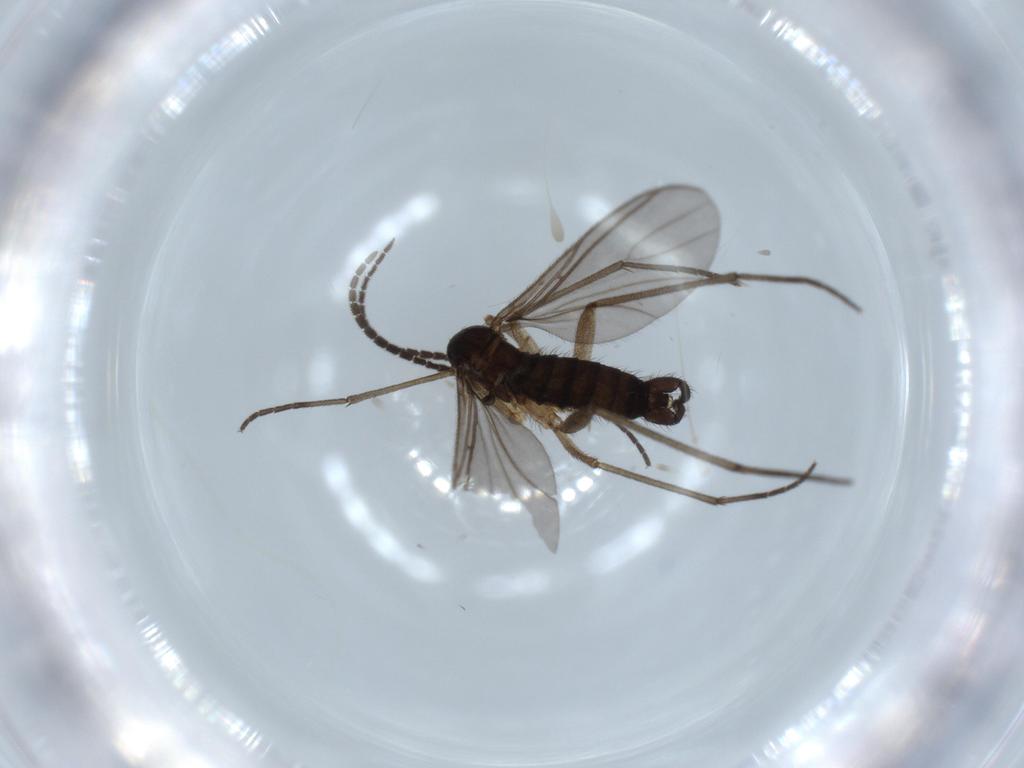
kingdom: Animalia
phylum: Arthropoda
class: Insecta
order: Diptera
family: Sciaridae
